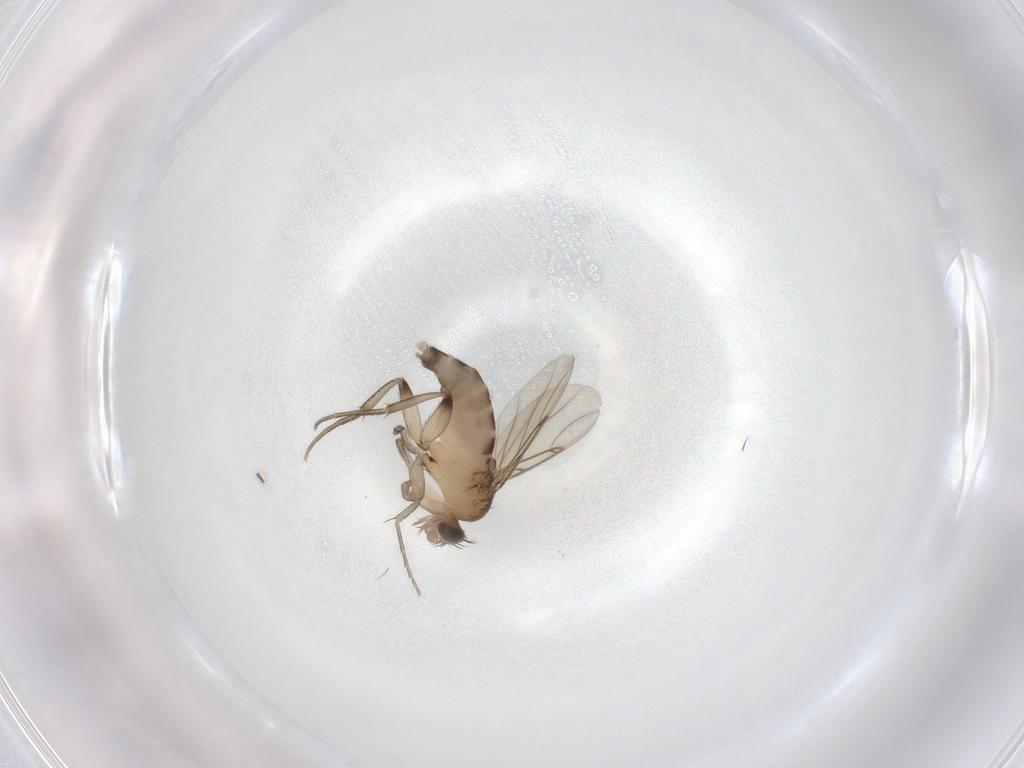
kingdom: Animalia
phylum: Arthropoda
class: Insecta
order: Diptera
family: Phoridae
